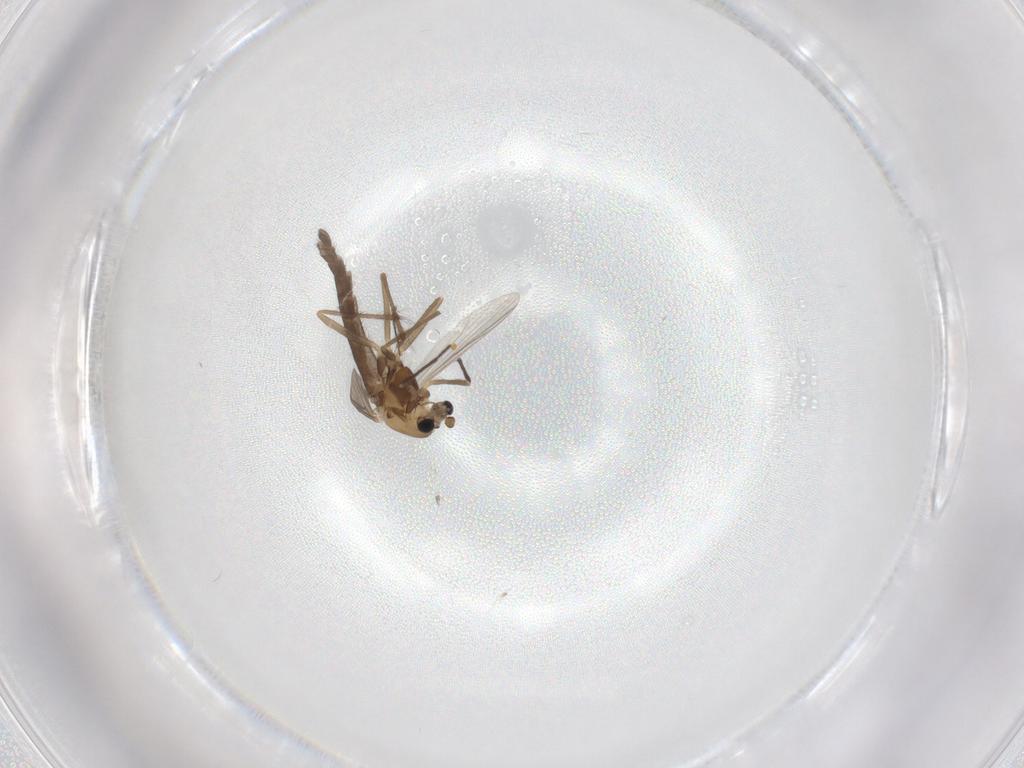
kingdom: Animalia
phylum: Arthropoda
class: Insecta
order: Diptera
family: Chironomidae
